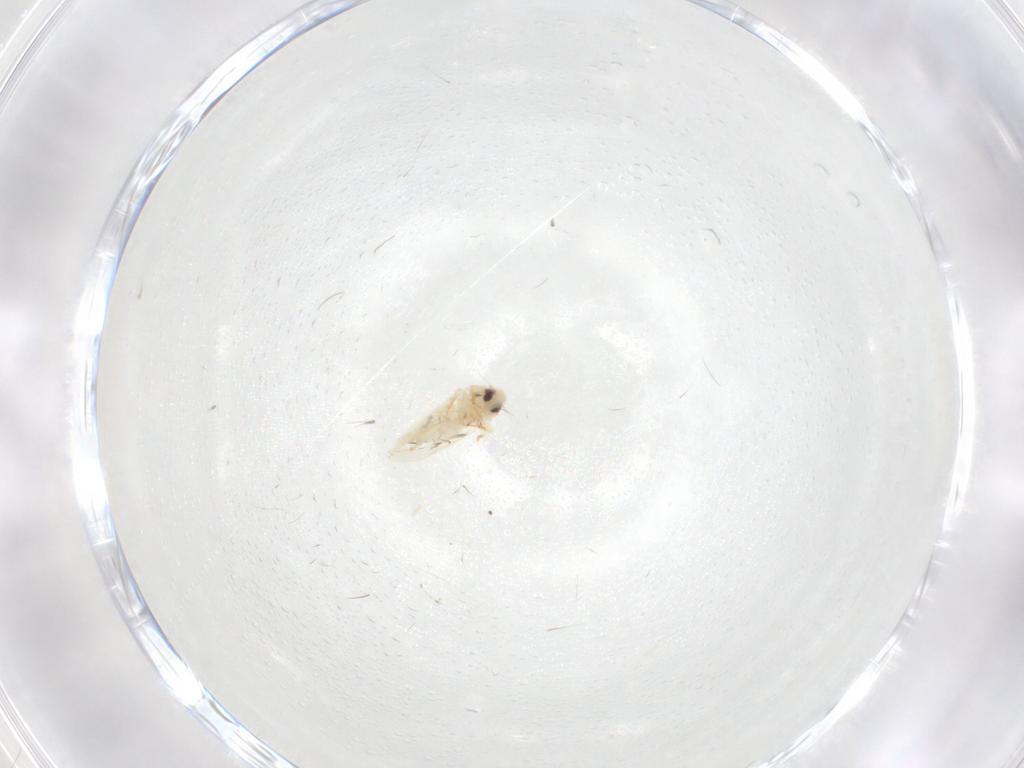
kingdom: Animalia
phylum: Arthropoda
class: Insecta
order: Hemiptera
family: Aleyrodidae
